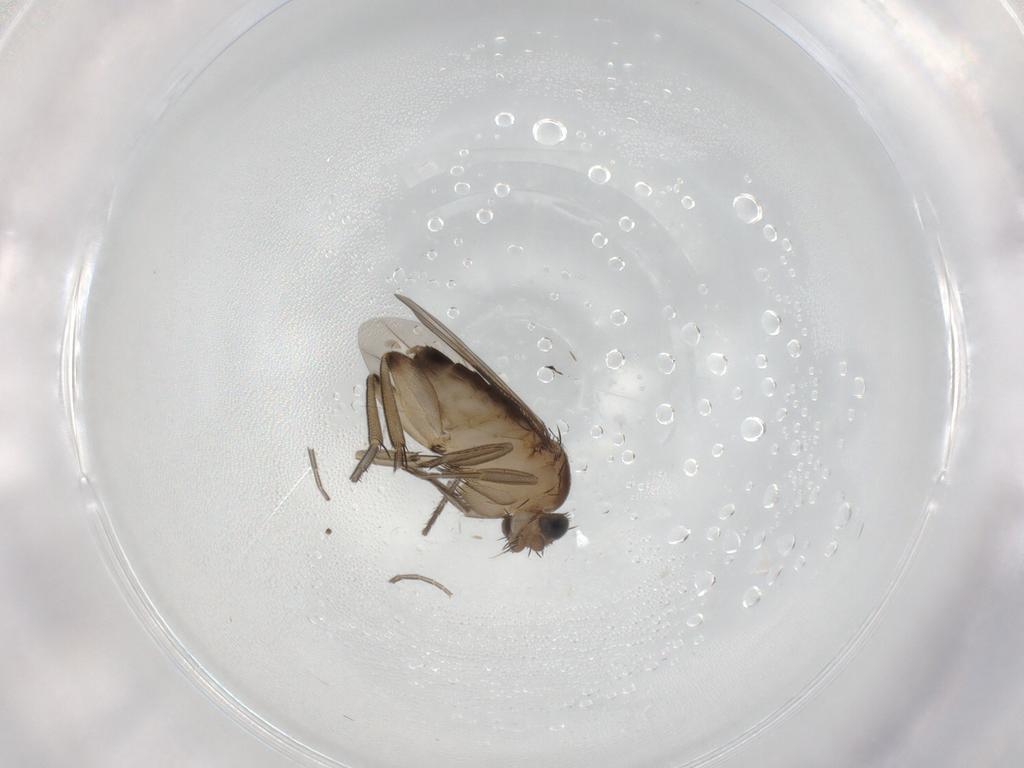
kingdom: Animalia
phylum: Arthropoda
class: Insecta
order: Diptera
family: Phoridae
